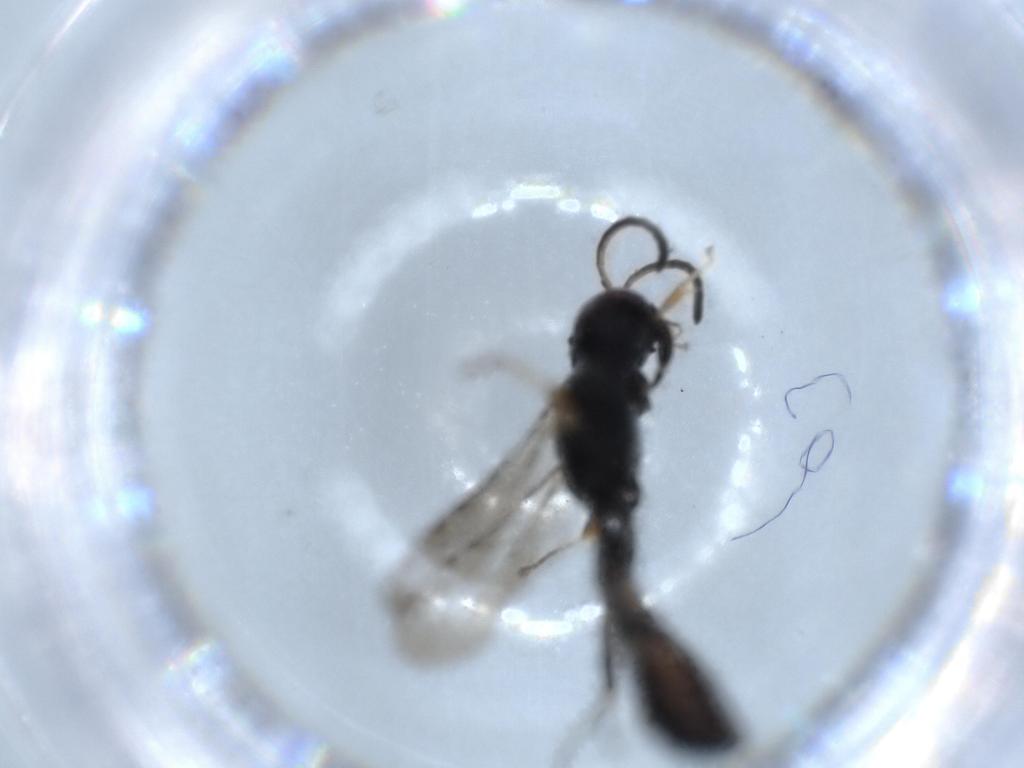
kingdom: Animalia
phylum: Arthropoda
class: Insecta
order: Hymenoptera
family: Crabronidae
